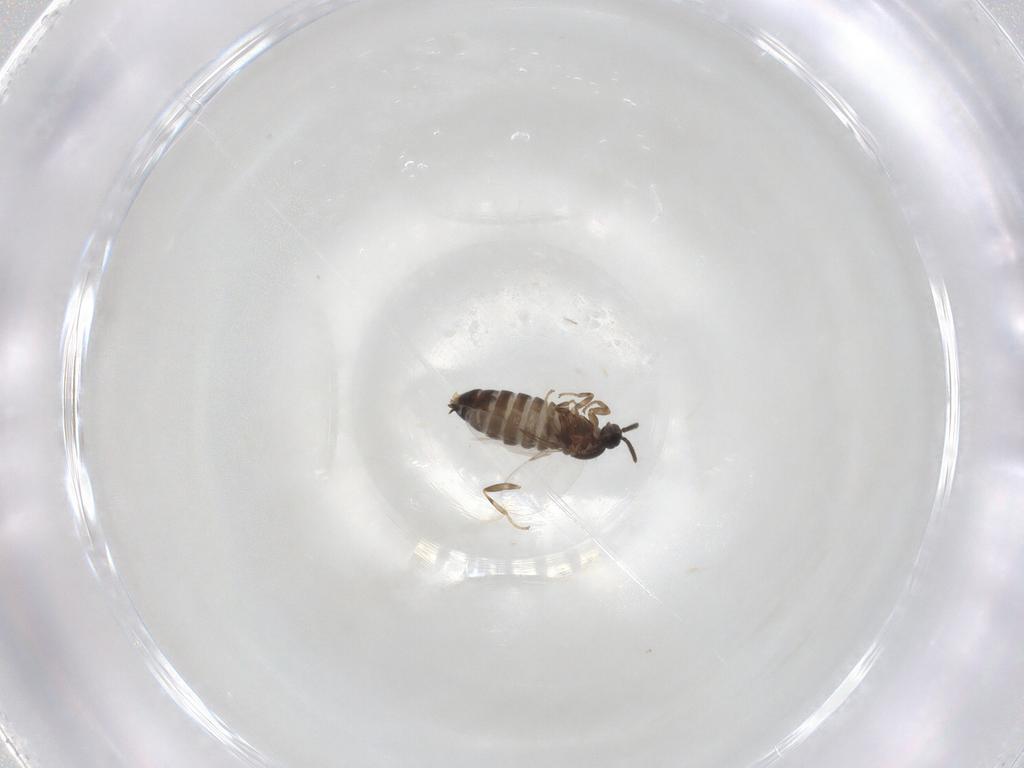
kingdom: Animalia
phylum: Arthropoda
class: Insecta
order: Diptera
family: Scatopsidae
